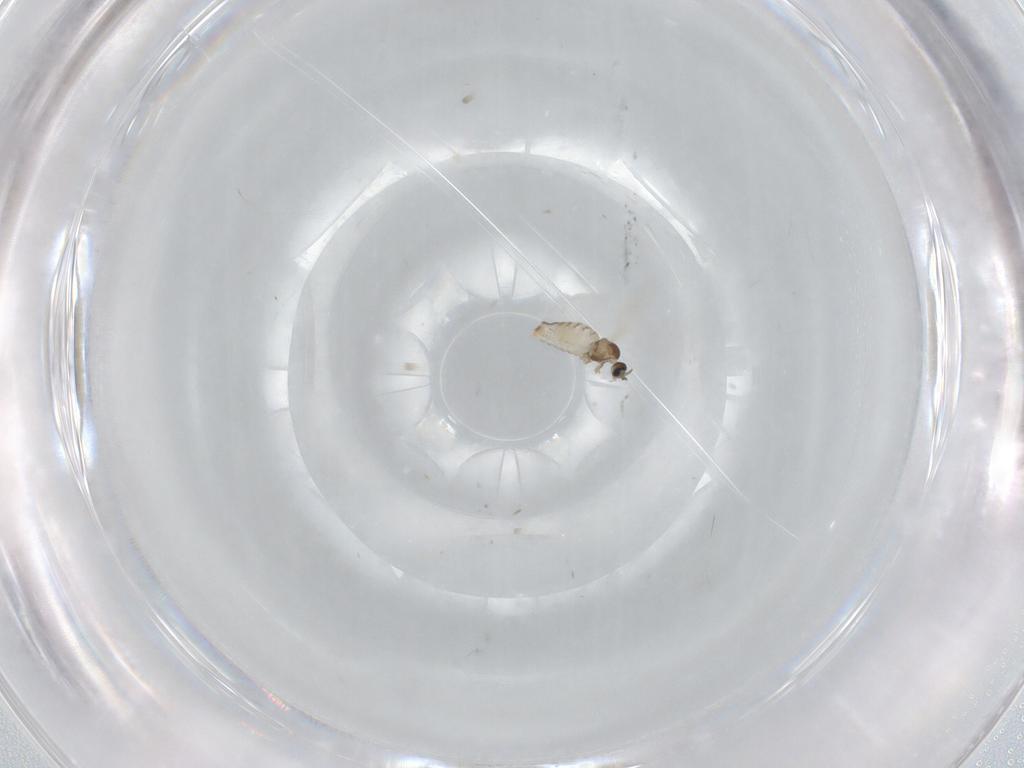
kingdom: Animalia
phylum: Arthropoda
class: Insecta
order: Diptera
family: Cecidomyiidae
